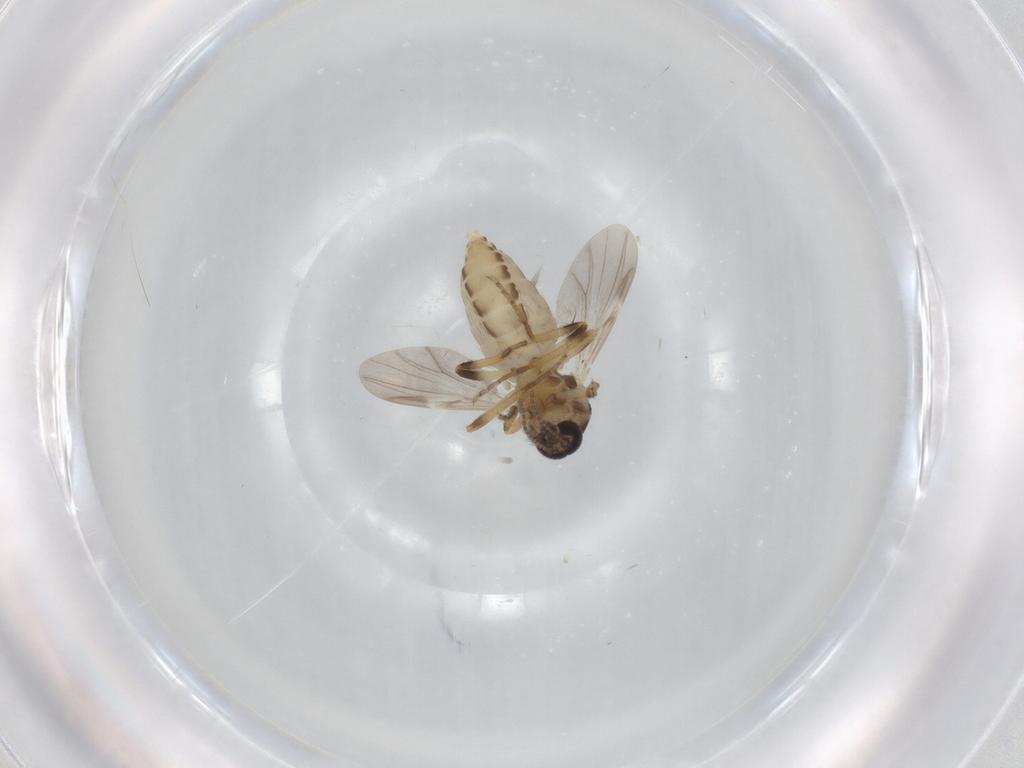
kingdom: Animalia
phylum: Arthropoda
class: Insecta
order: Diptera
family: Ceratopogonidae
